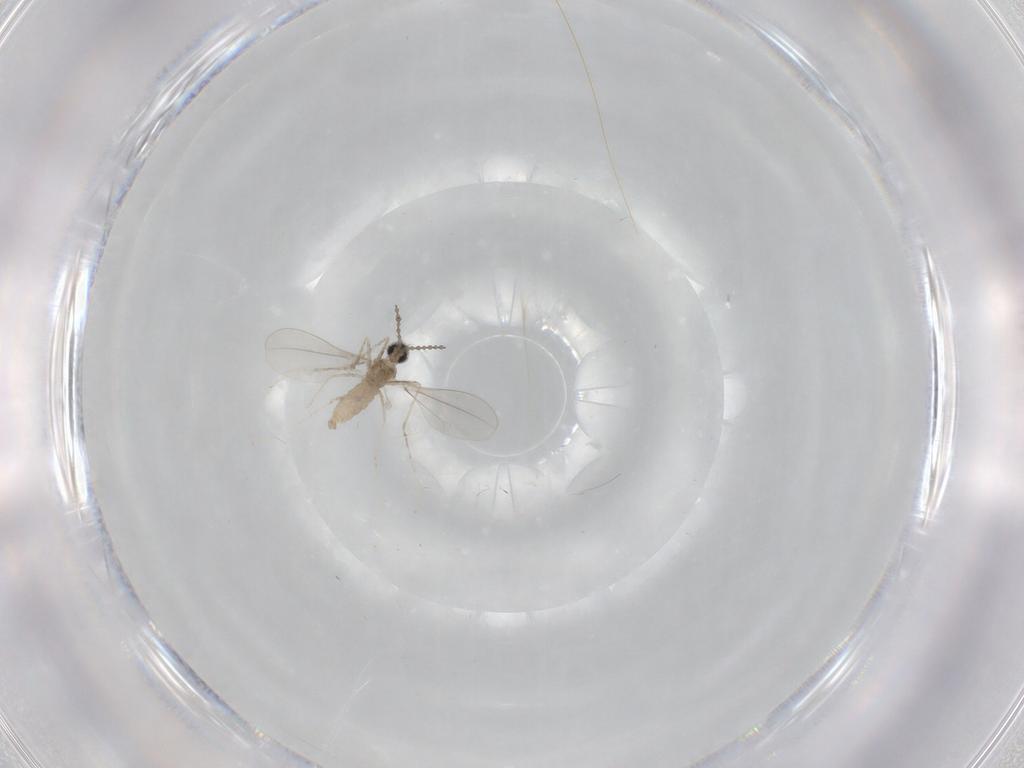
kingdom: Animalia
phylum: Arthropoda
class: Insecta
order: Diptera
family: Cecidomyiidae
